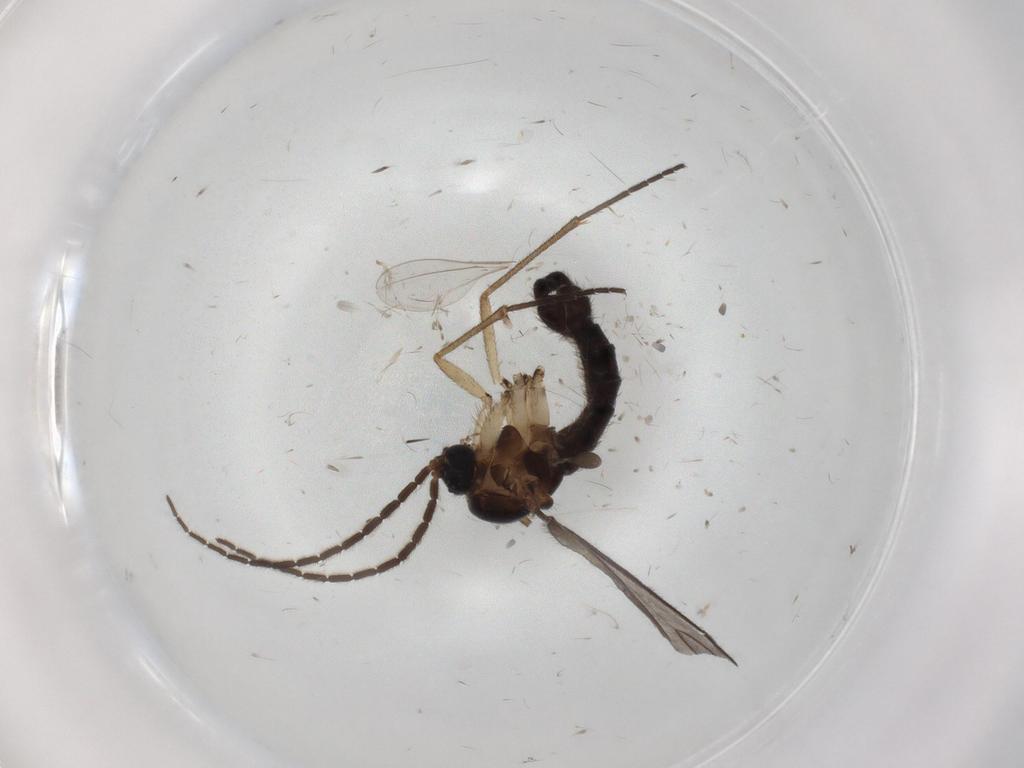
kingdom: Animalia
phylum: Arthropoda
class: Insecta
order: Diptera
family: Sciaridae
